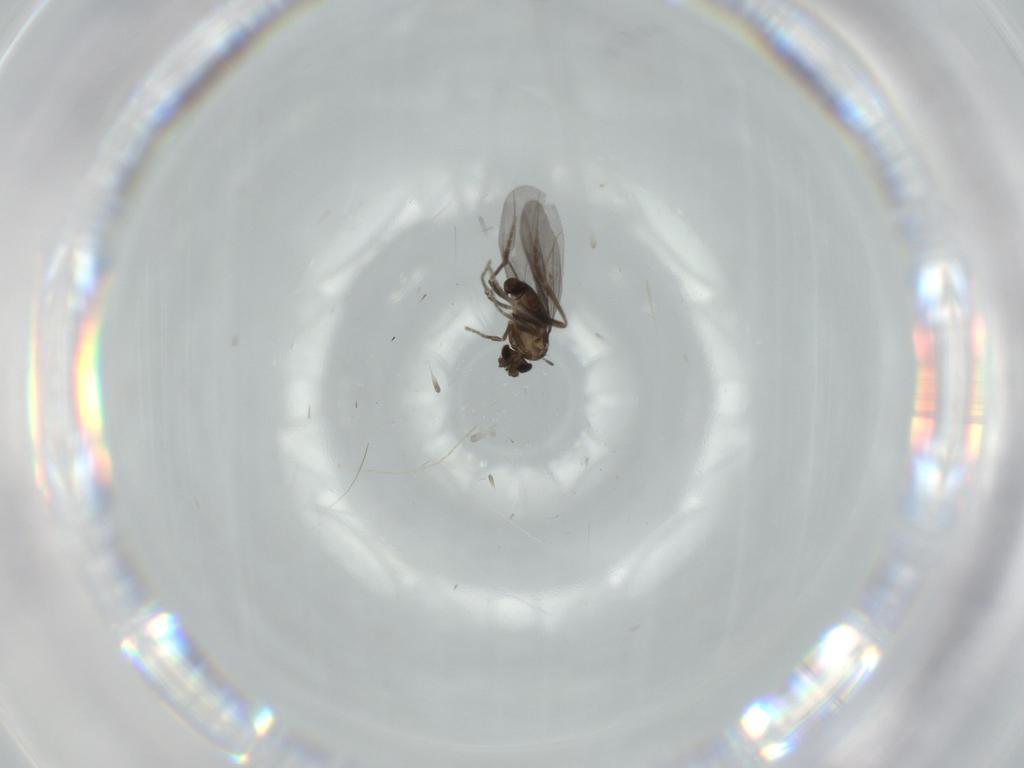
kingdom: Animalia
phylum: Arthropoda
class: Insecta
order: Diptera
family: Phoridae
